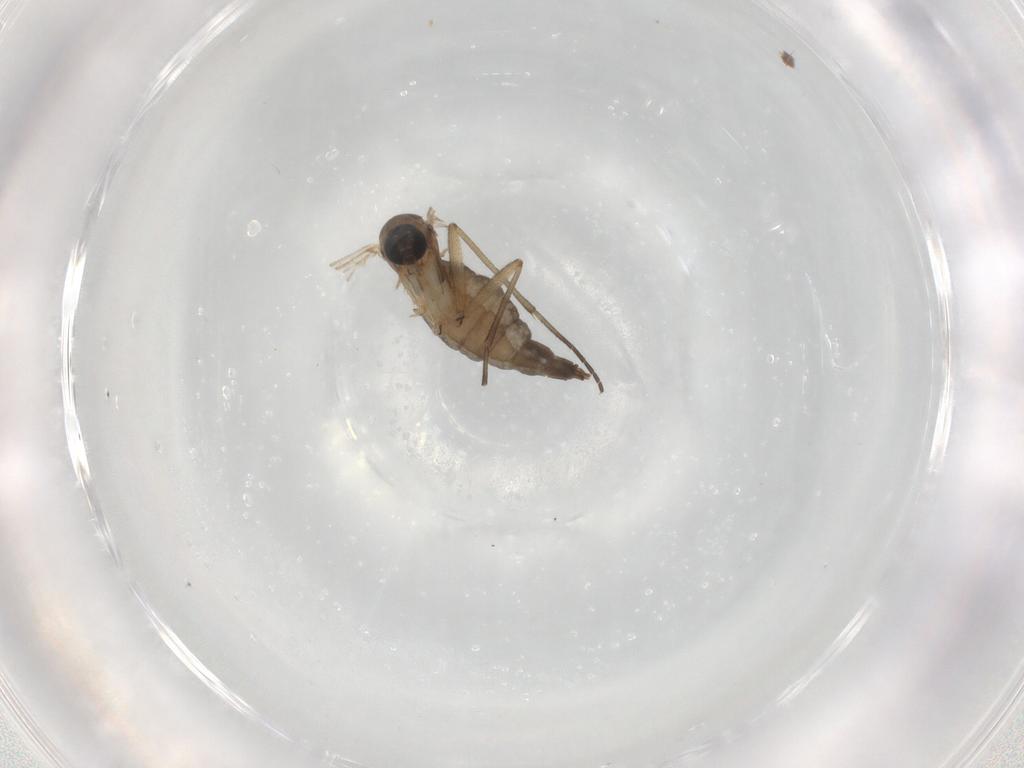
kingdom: Animalia
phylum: Arthropoda
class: Insecta
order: Diptera
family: Sciaridae
